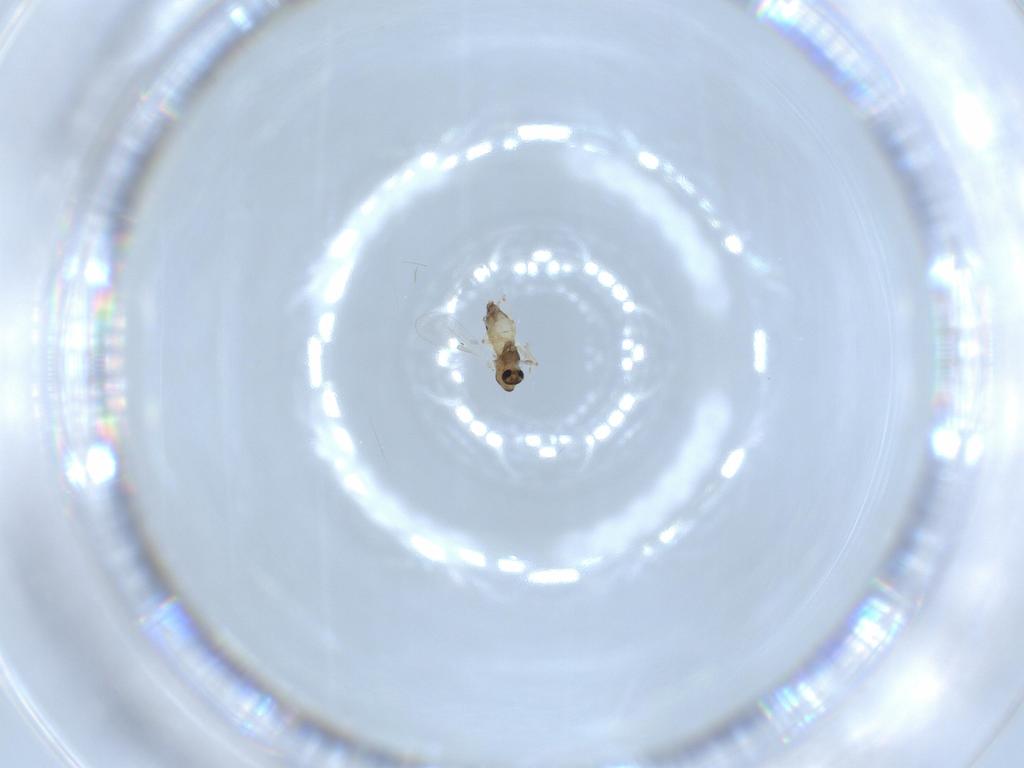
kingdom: Animalia
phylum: Arthropoda
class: Insecta
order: Diptera
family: Chironomidae
